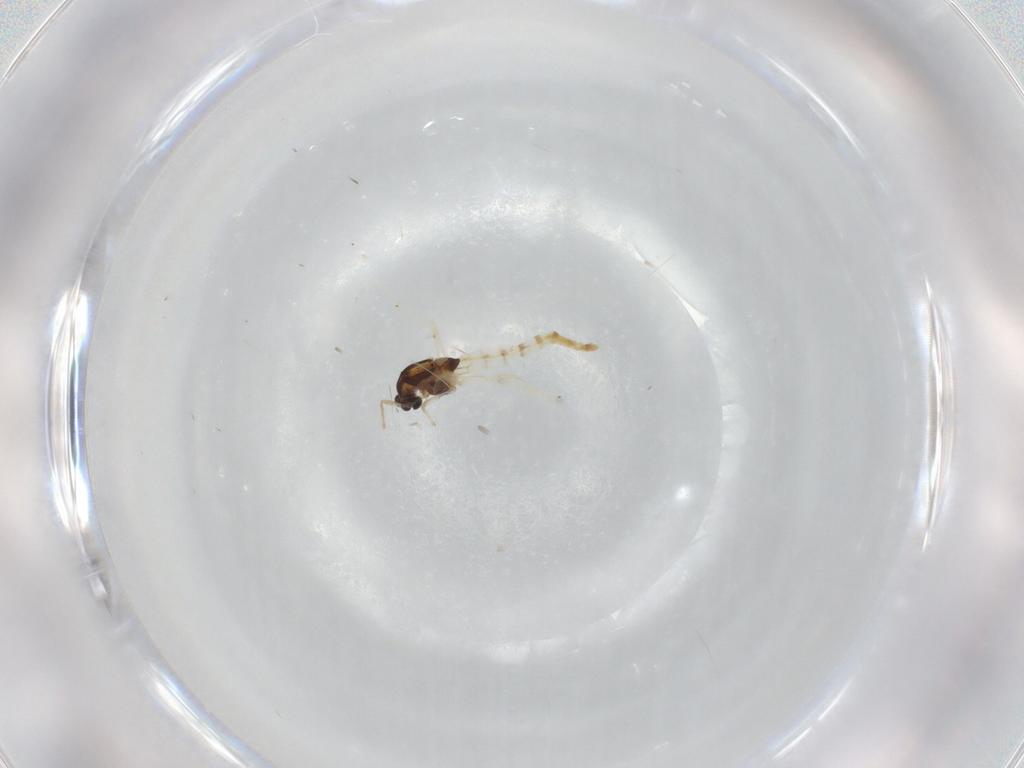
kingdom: Animalia
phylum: Arthropoda
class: Insecta
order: Diptera
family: Chironomidae
